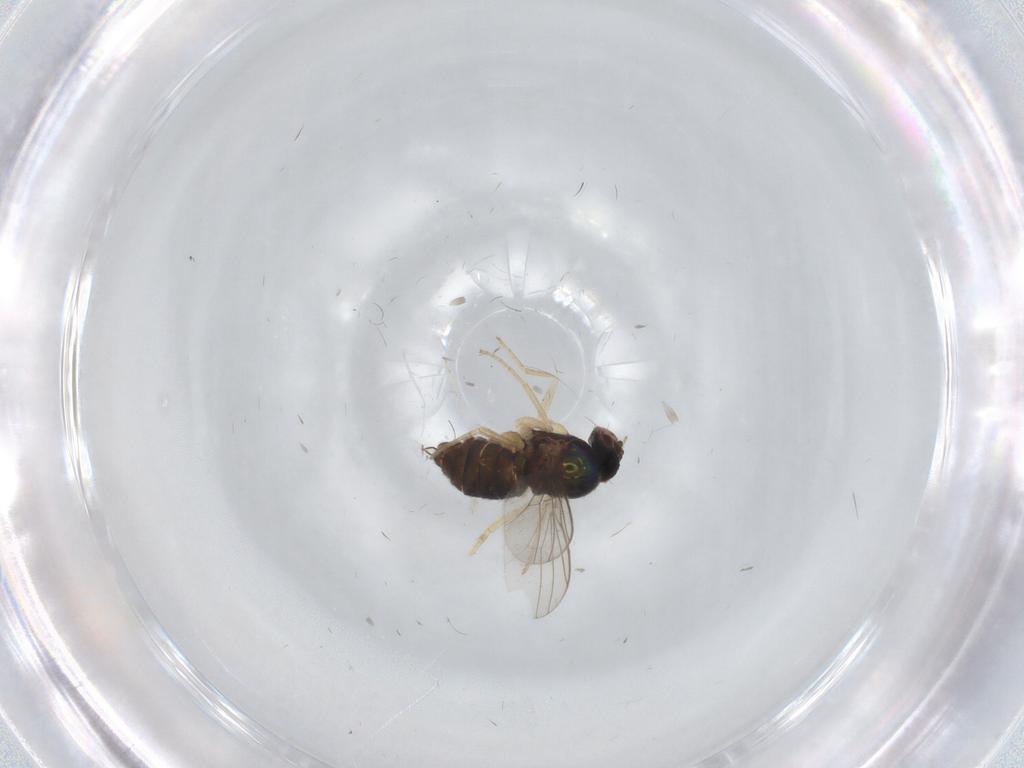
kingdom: Animalia
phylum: Arthropoda
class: Insecta
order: Diptera
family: Dolichopodidae
